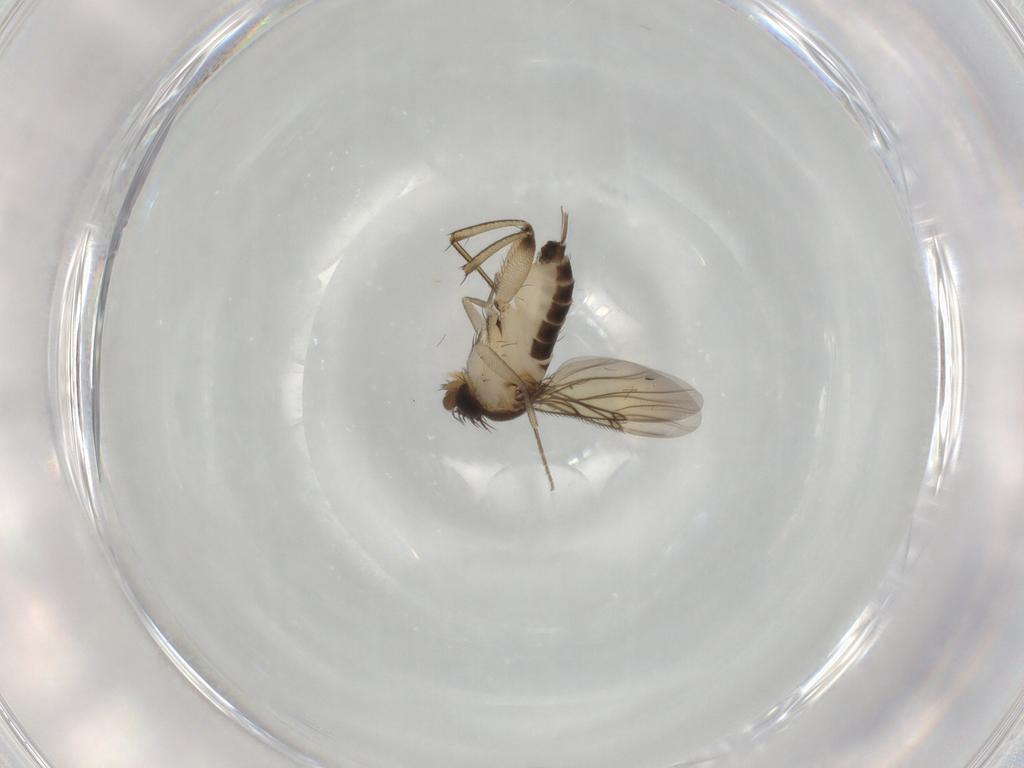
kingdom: Animalia
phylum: Arthropoda
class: Insecta
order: Diptera
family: Phoridae
